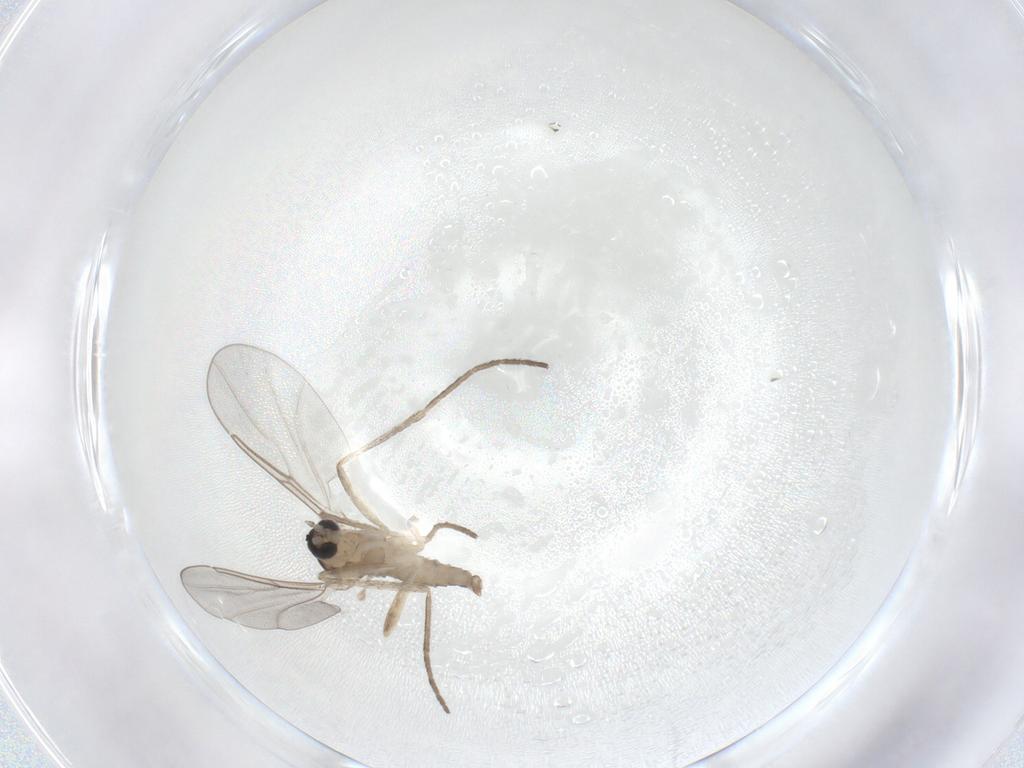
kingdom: Animalia
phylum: Arthropoda
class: Insecta
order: Diptera
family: Cecidomyiidae
